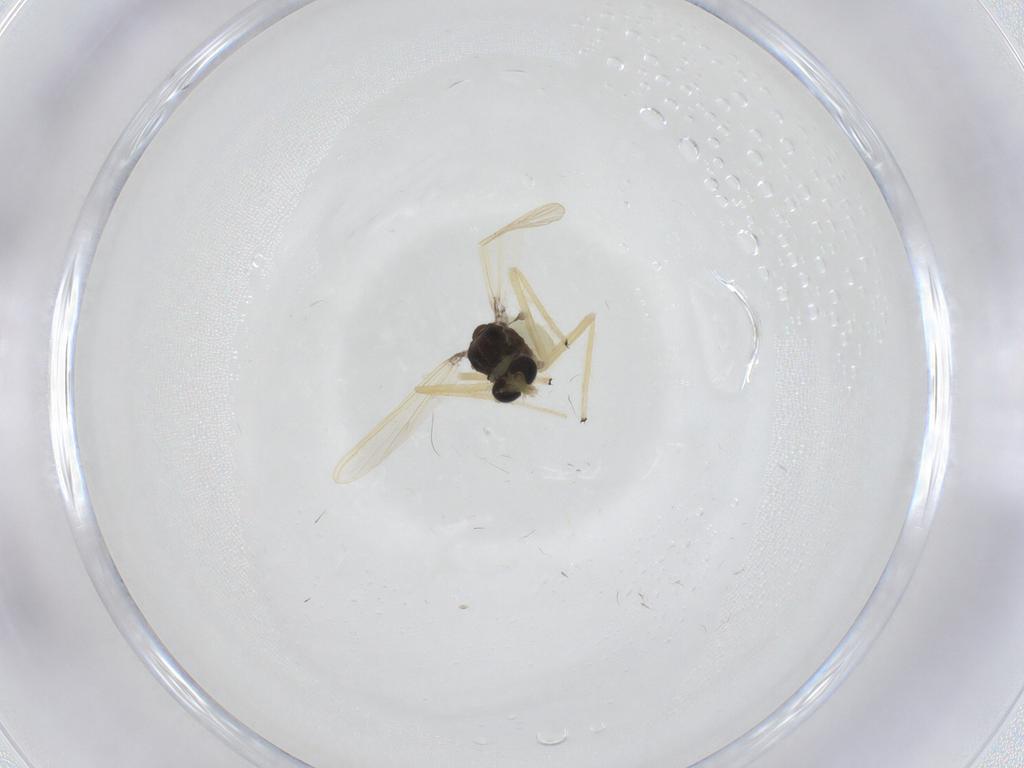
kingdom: Animalia
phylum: Arthropoda
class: Insecta
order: Diptera
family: Chironomidae
